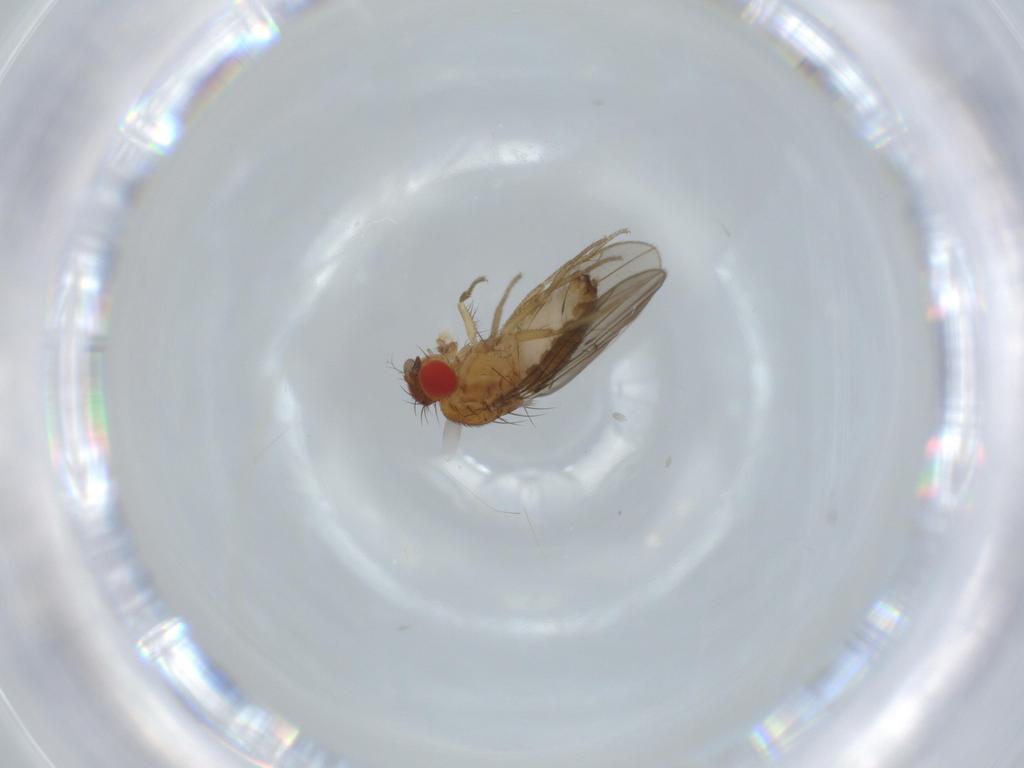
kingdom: Animalia
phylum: Arthropoda
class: Insecta
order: Diptera
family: Drosophilidae
